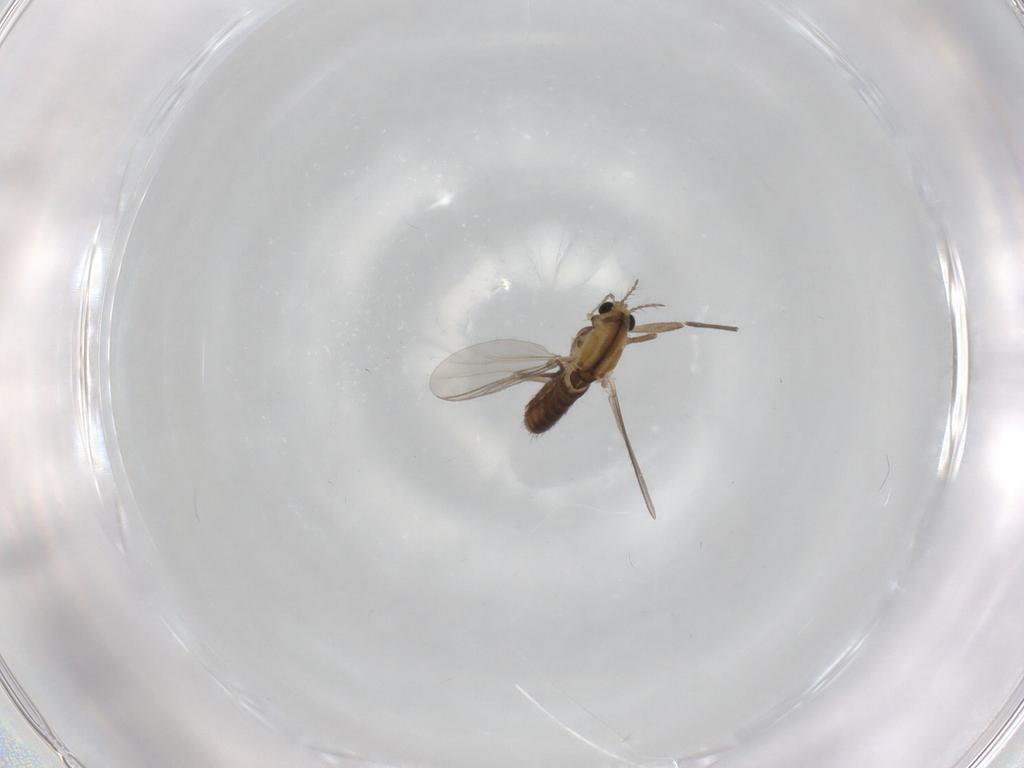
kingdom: Animalia
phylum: Arthropoda
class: Insecta
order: Diptera
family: Chironomidae
